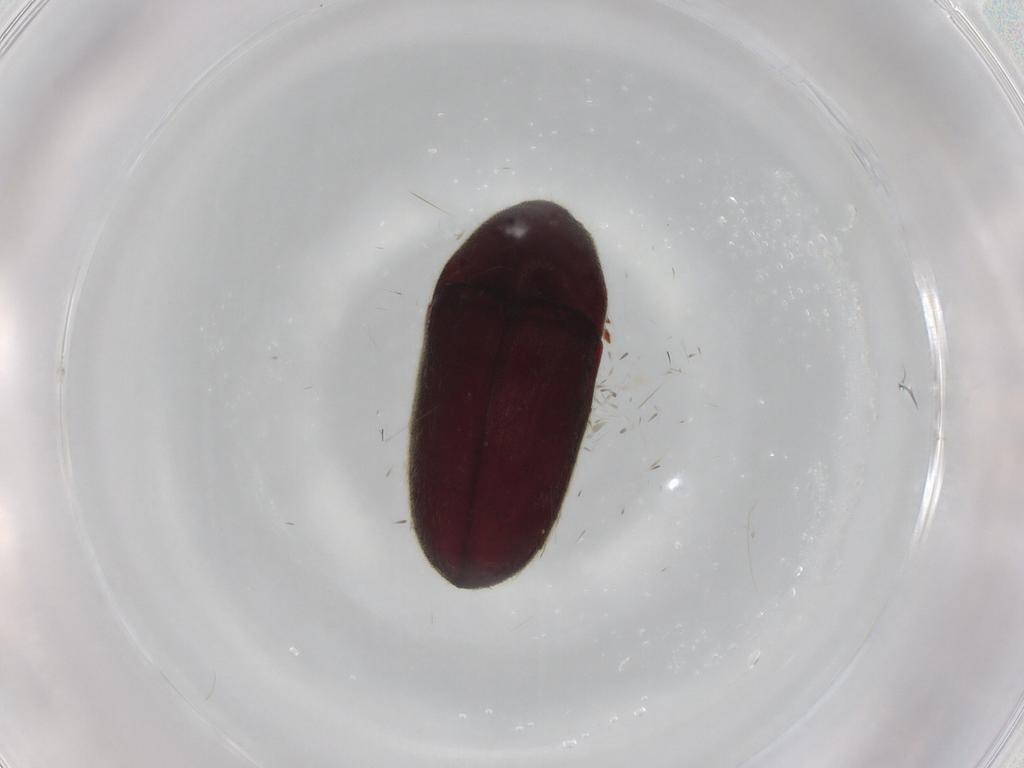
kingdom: Animalia
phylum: Arthropoda
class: Insecta
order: Coleoptera
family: Throscidae
